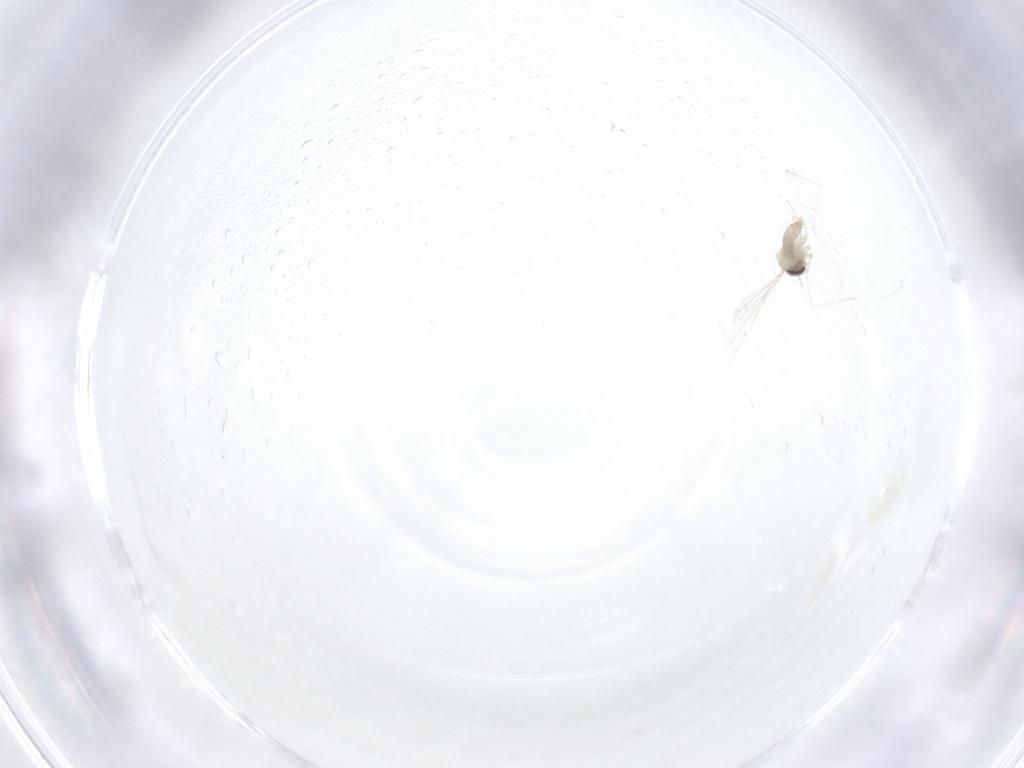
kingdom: Animalia
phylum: Arthropoda
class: Insecta
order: Diptera
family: Cecidomyiidae
